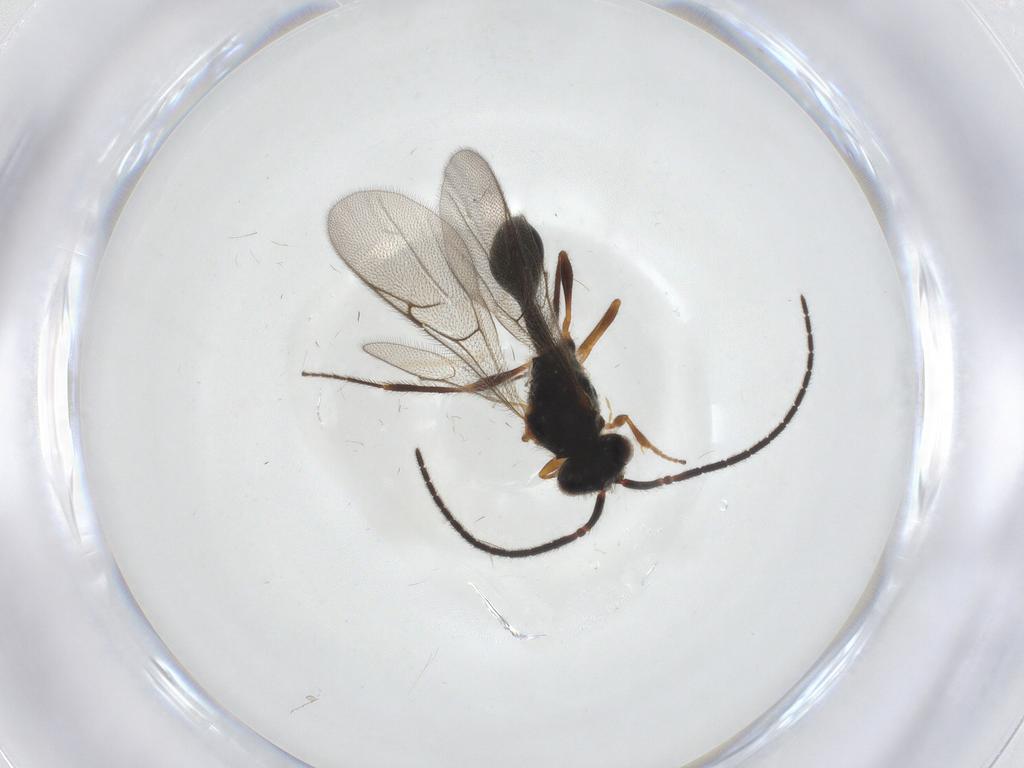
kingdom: Animalia
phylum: Arthropoda
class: Insecta
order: Hymenoptera
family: Diapriidae
